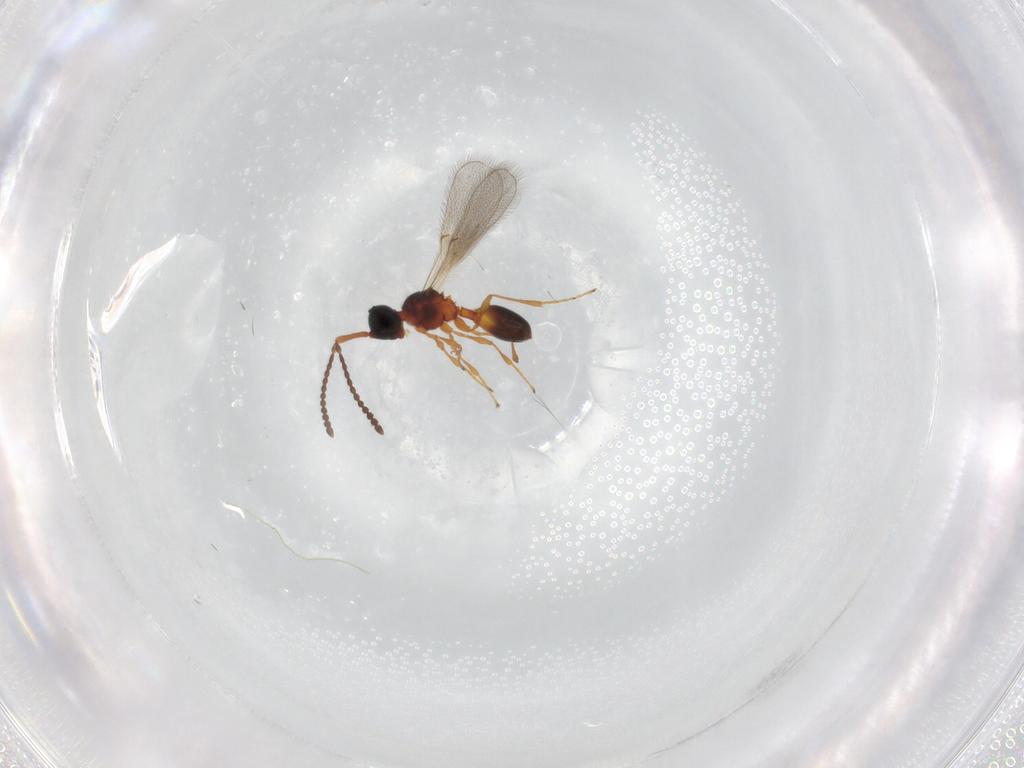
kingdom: Animalia
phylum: Arthropoda
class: Insecta
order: Hymenoptera
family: Diapriidae
